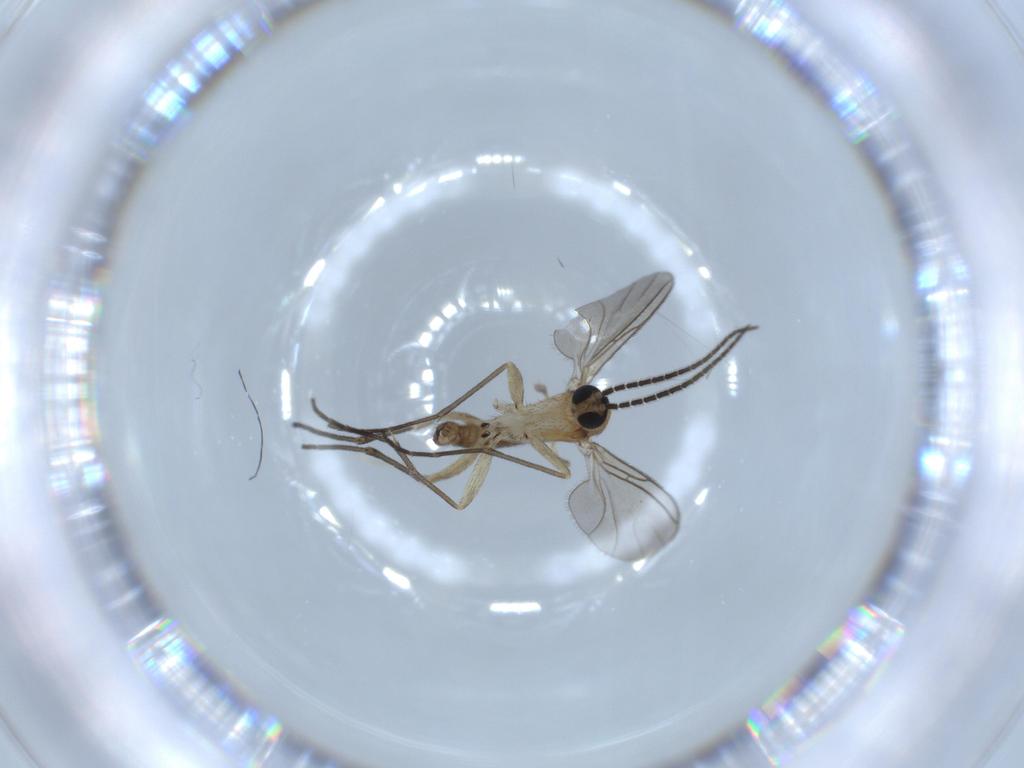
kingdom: Animalia
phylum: Arthropoda
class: Insecta
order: Diptera
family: Sciaridae
